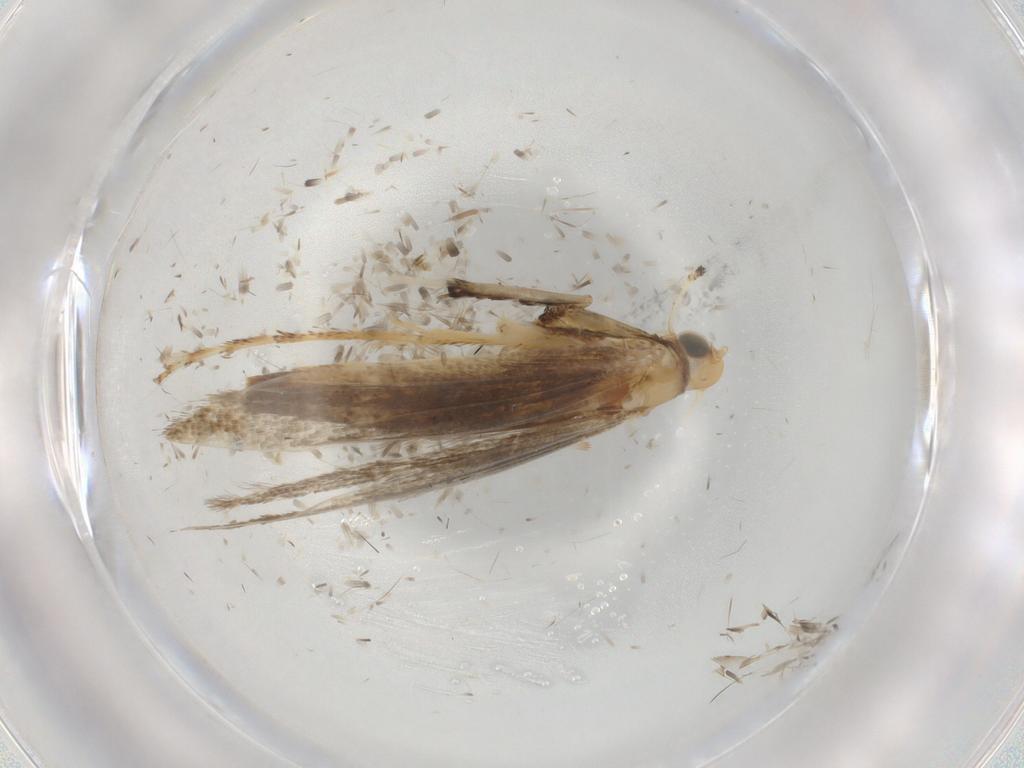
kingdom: Animalia
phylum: Arthropoda
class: Insecta
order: Lepidoptera
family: Gracillariidae
